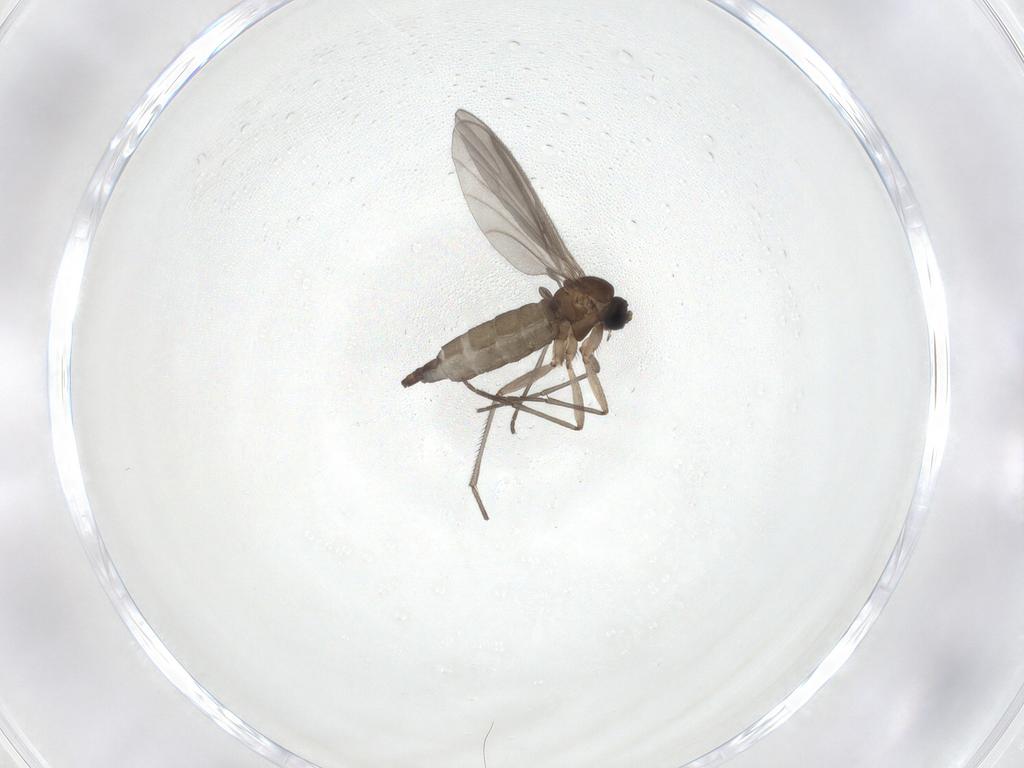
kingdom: Animalia
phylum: Arthropoda
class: Insecta
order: Diptera
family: Sciaridae
